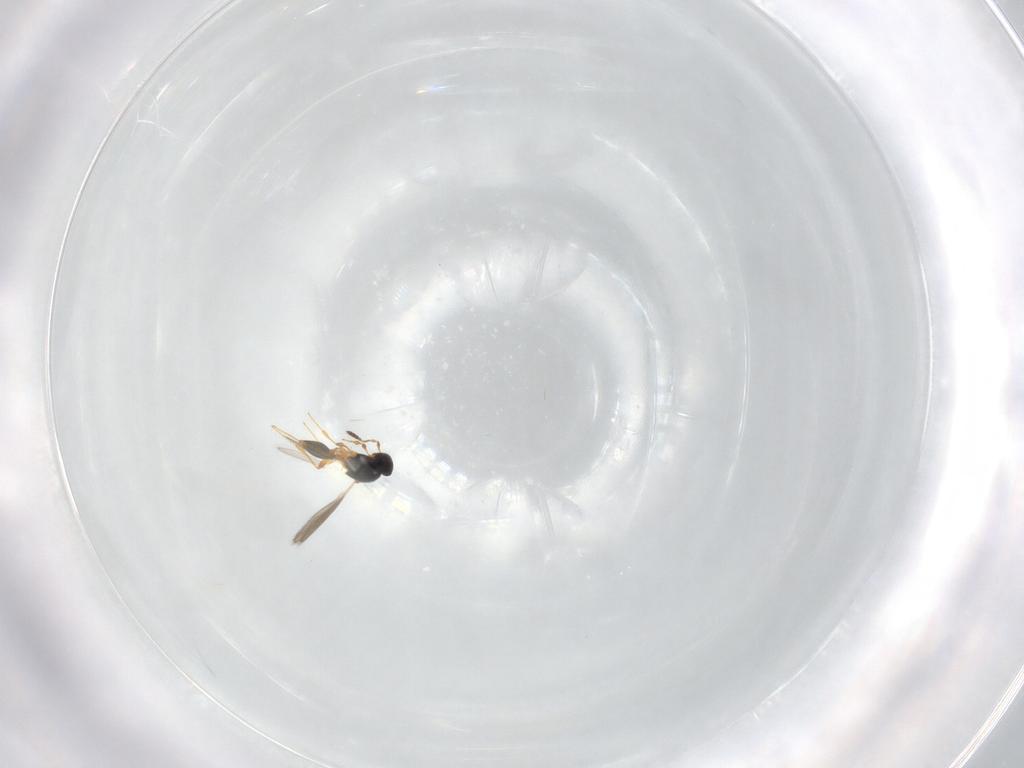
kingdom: Animalia
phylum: Arthropoda
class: Insecta
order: Hymenoptera
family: Platygastridae
